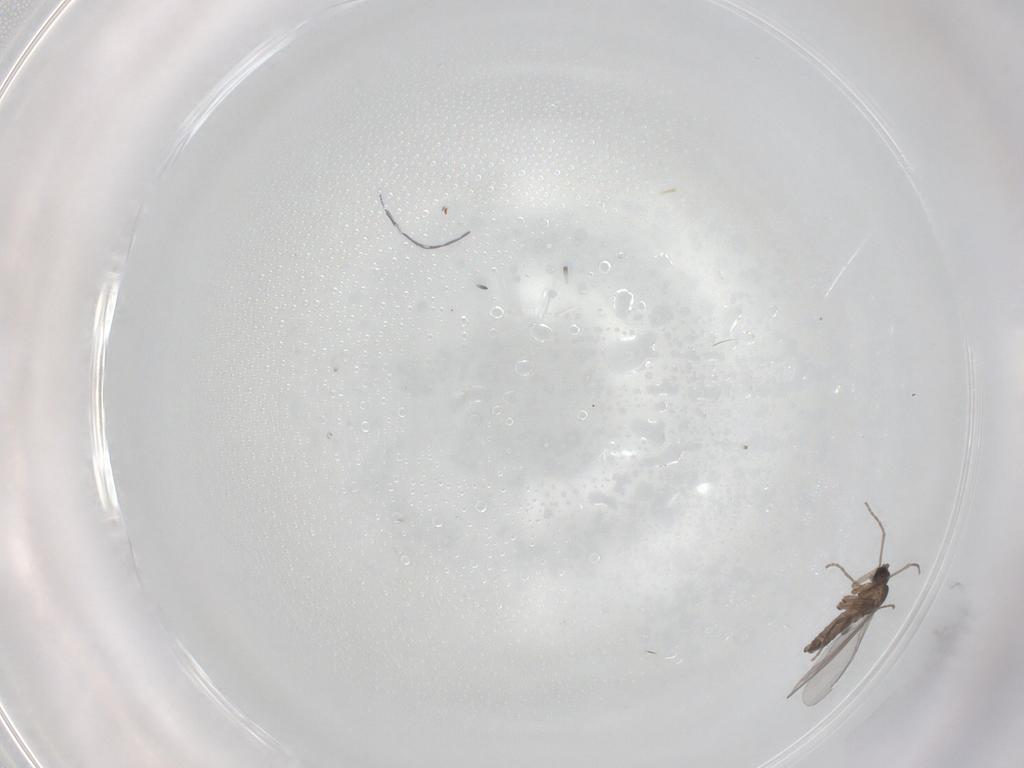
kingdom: Animalia
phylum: Arthropoda
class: Insecta
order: Diptera
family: Sciaridae
